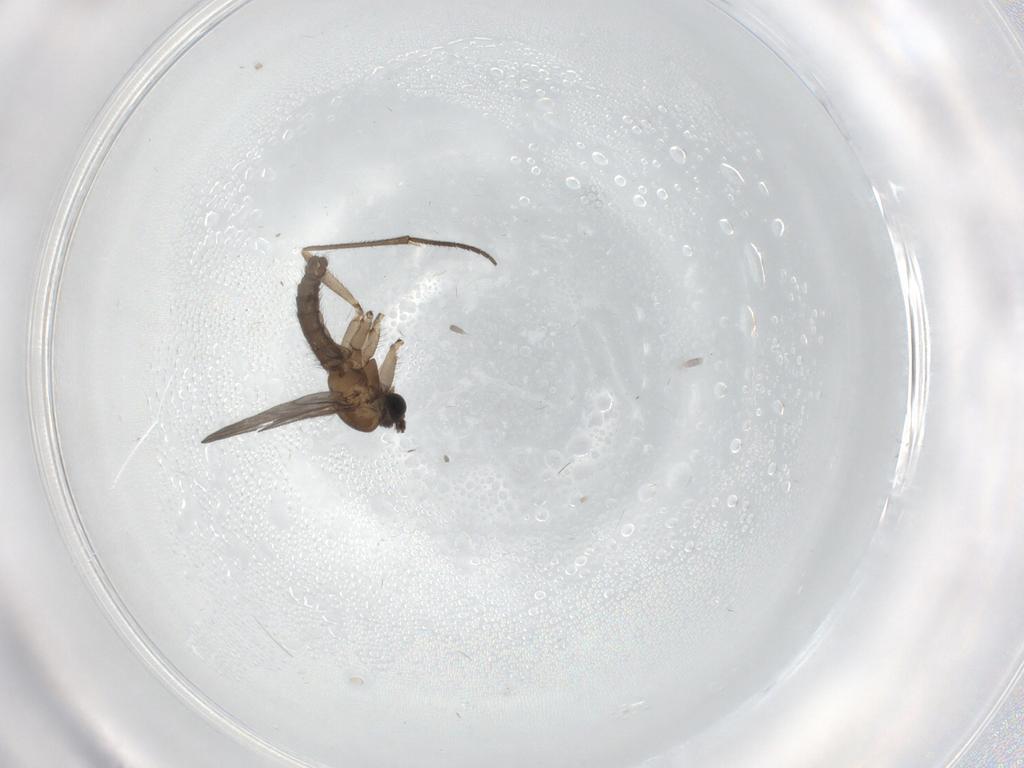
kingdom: Animalia
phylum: Arthropoda
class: Insecta
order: Diptera
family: Sciaridae
